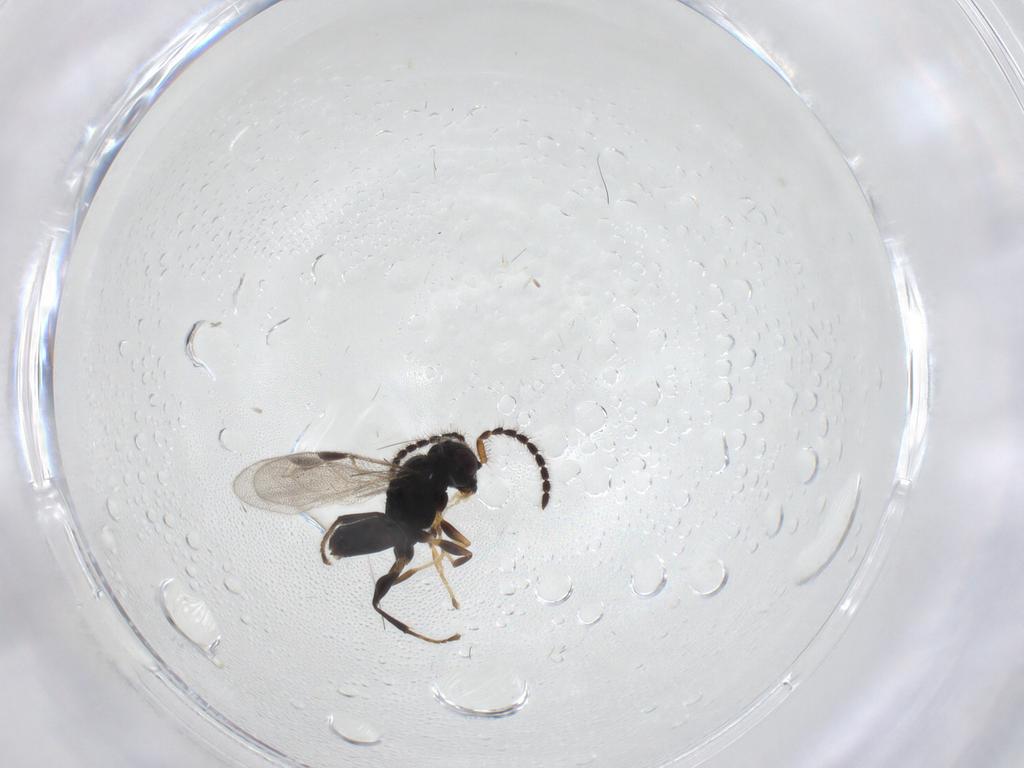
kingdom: Animalia
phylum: Arthropoda
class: Insecta
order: Hymenoptera
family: Dryinidae
